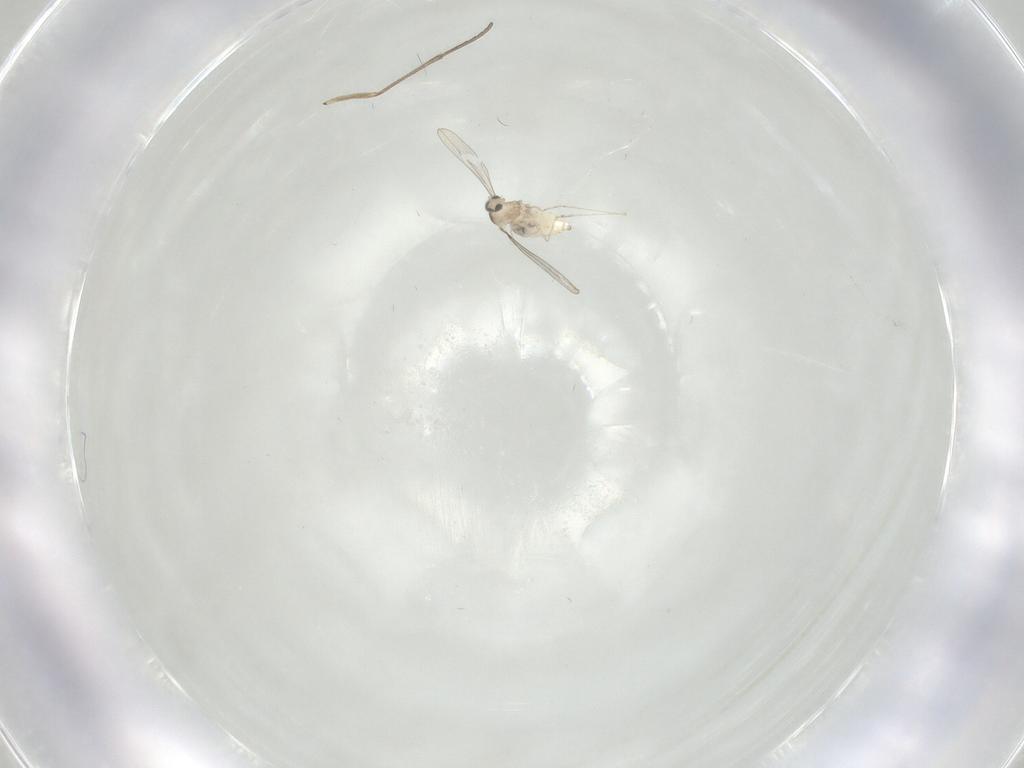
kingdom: Animalia
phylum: Arthropoda
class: Insecta
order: Diptera
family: Cecidomyiidae
